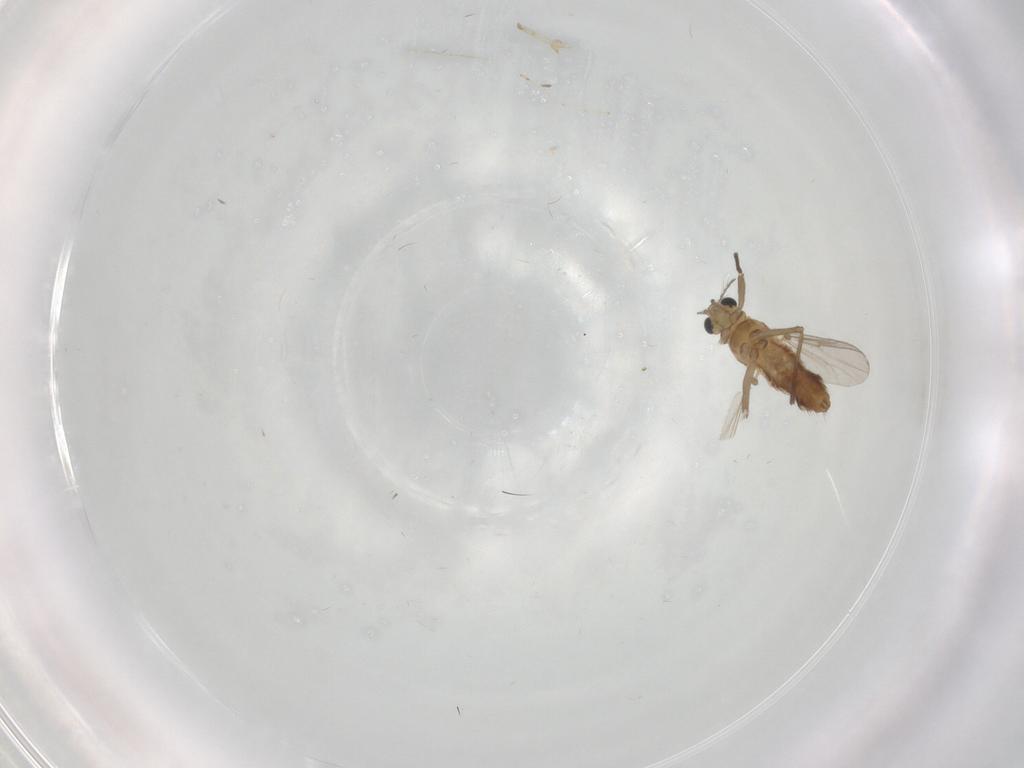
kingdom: Animalia
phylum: Arthropoda
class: Insecta
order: Diptera
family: Chironomidae
